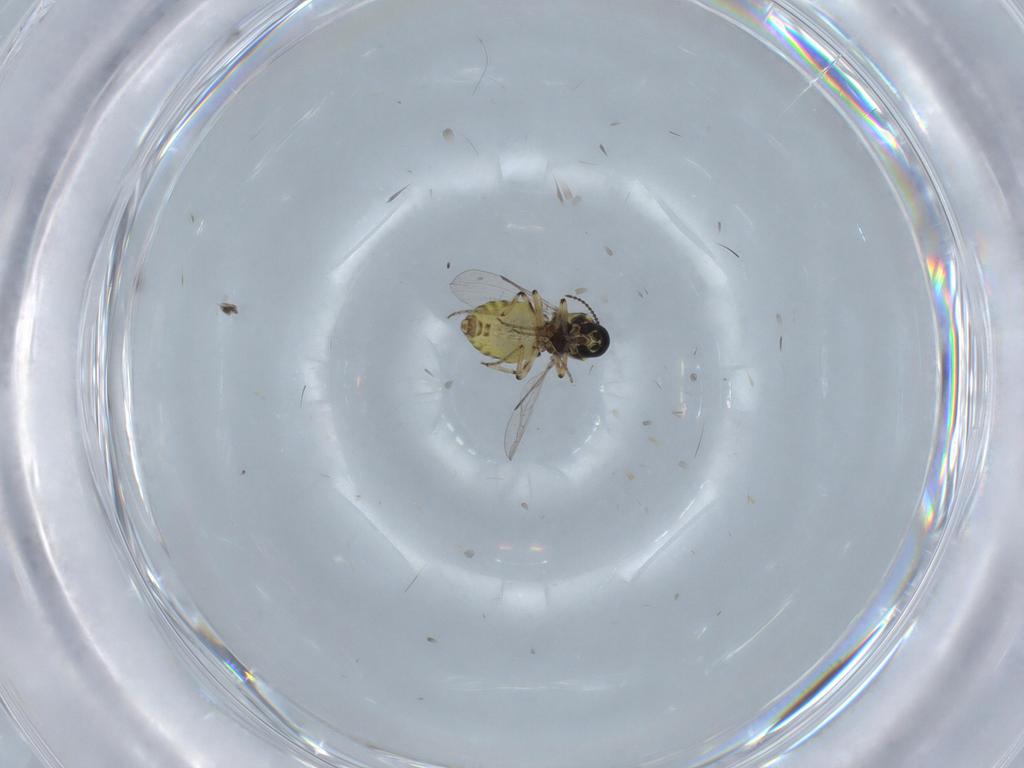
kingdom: Animalia
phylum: Arthropoda
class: Insecta
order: Diptera
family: Ceratopogonidae
